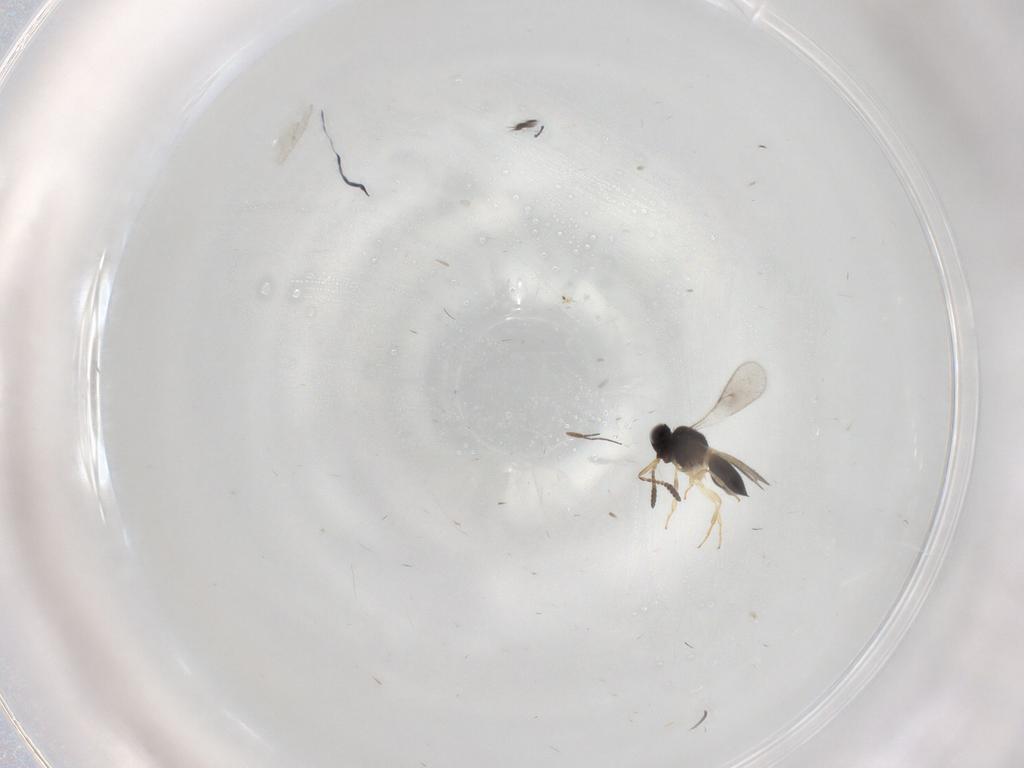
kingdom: Animalia
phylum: Arthropoda
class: Insecta
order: Hymenoptera
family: Scelionidae
